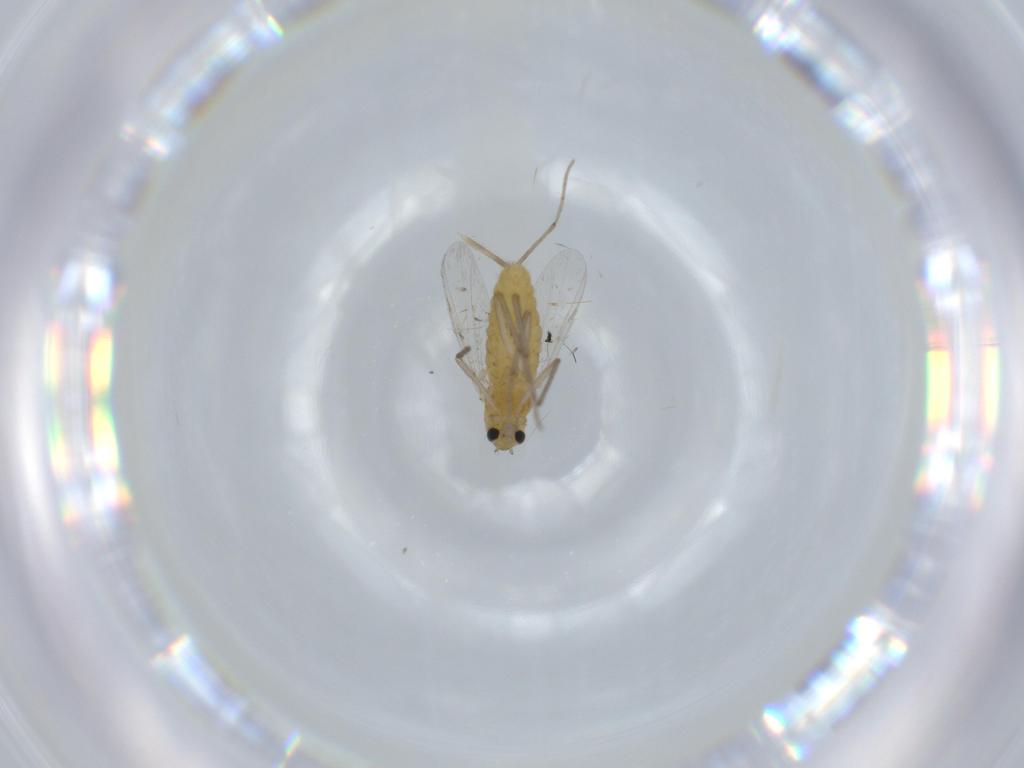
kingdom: Animalia
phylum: Arthropoda
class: Insecta
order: Diptera
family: Chironomidae
